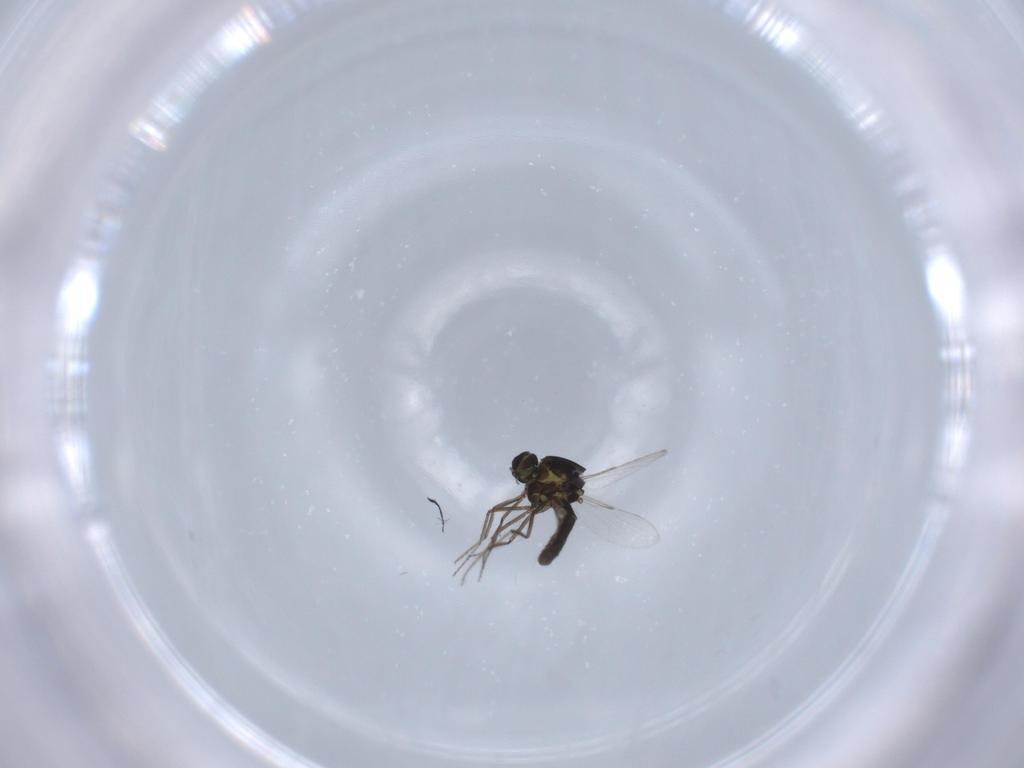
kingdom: Animalia
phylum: Arthropoda
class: Insecta
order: Diptera
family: Ceratopogonidae
